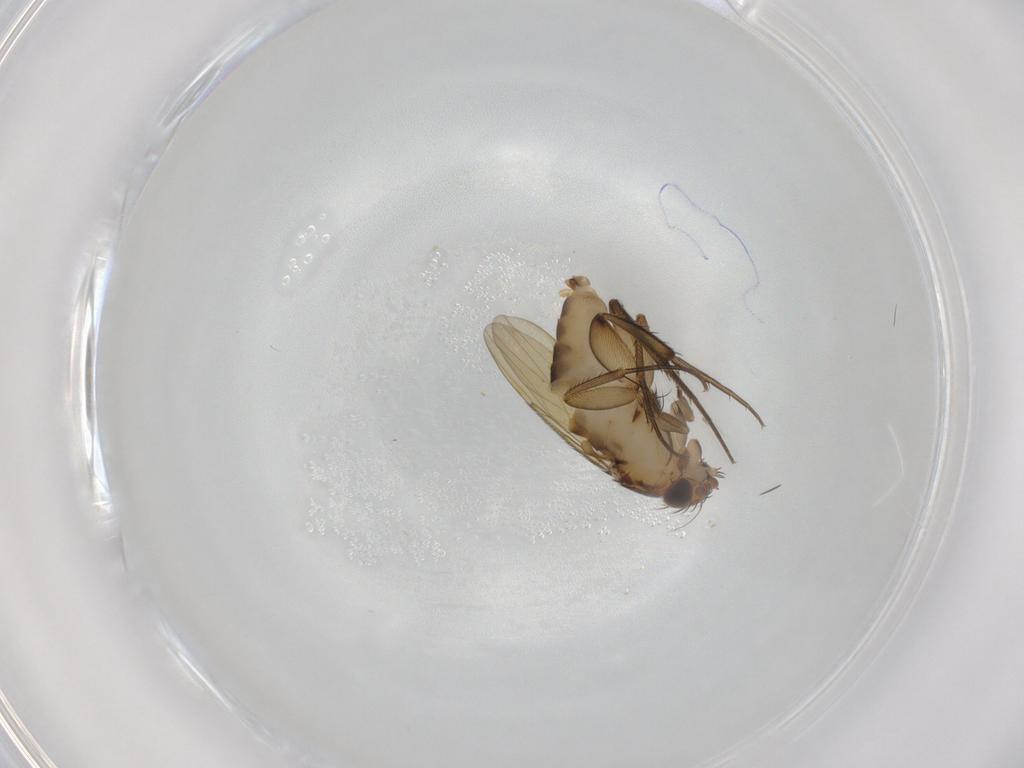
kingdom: Animalia
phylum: Arthropoda
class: Insecta
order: Diptera
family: Phoridae
